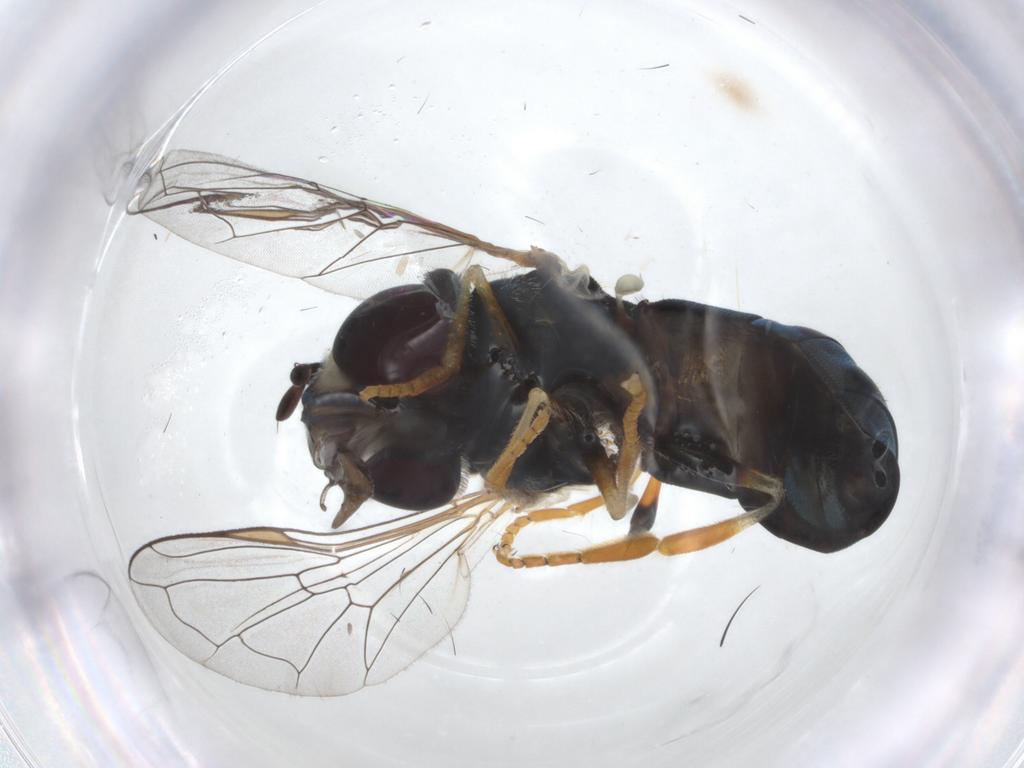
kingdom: Animalia
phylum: Arthropoda
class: Insecta
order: Diptera
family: Syrphidae
